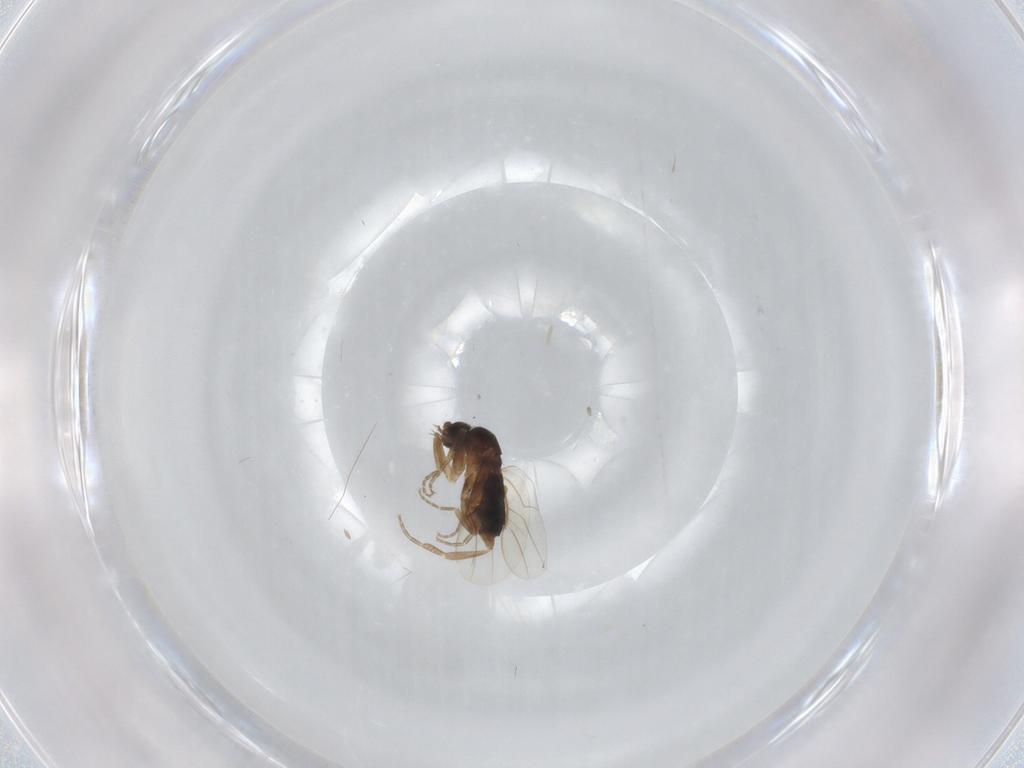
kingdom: Animalia
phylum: Arthropoda
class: Insecta
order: Diptera
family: Phoridae
